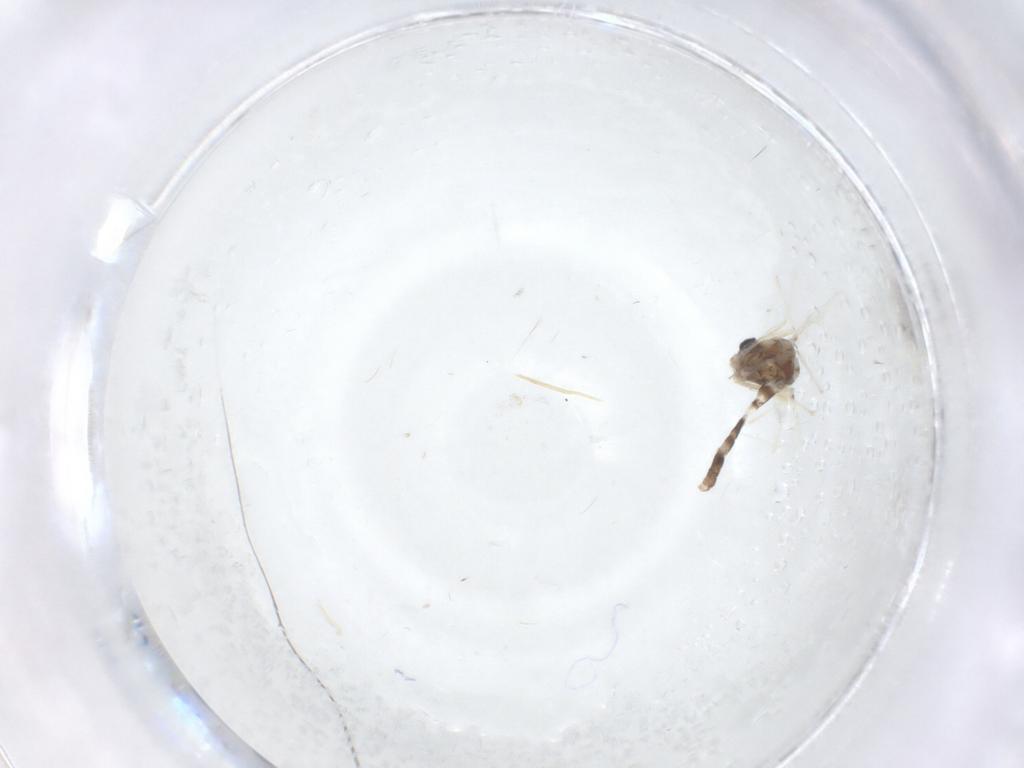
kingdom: Animalia
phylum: Arthropoda
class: Insecta
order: Diptera
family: Chironomidae
